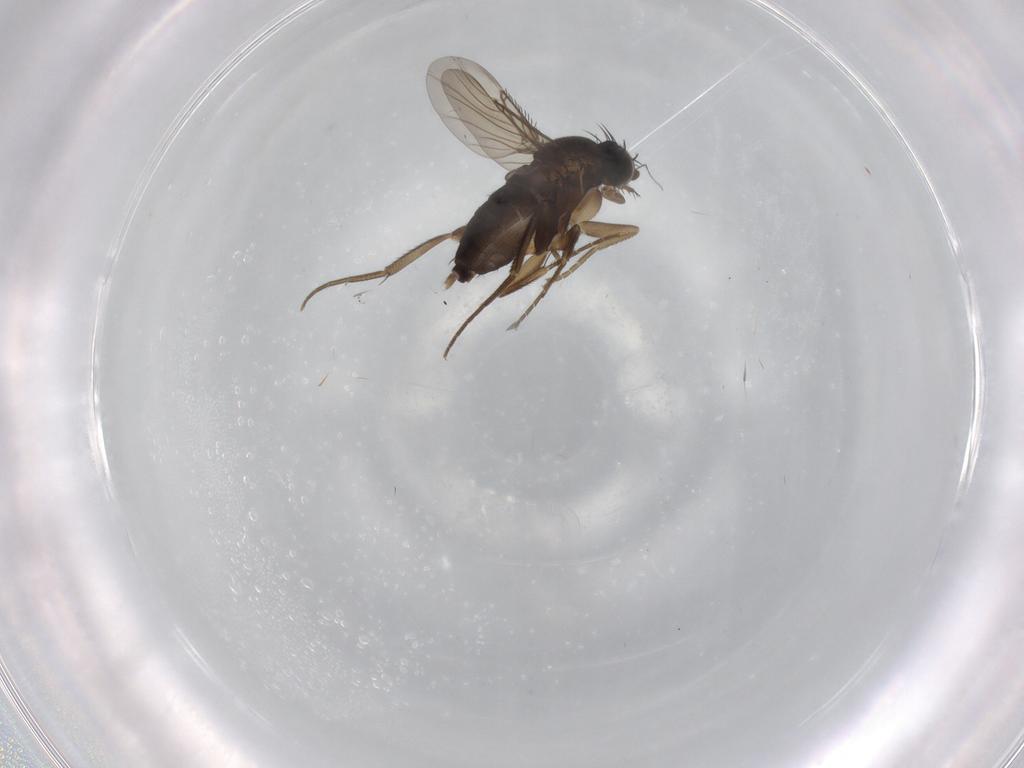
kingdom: Animalia
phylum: Arthropoda
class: Insecta
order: Diptera
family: Phoridae
